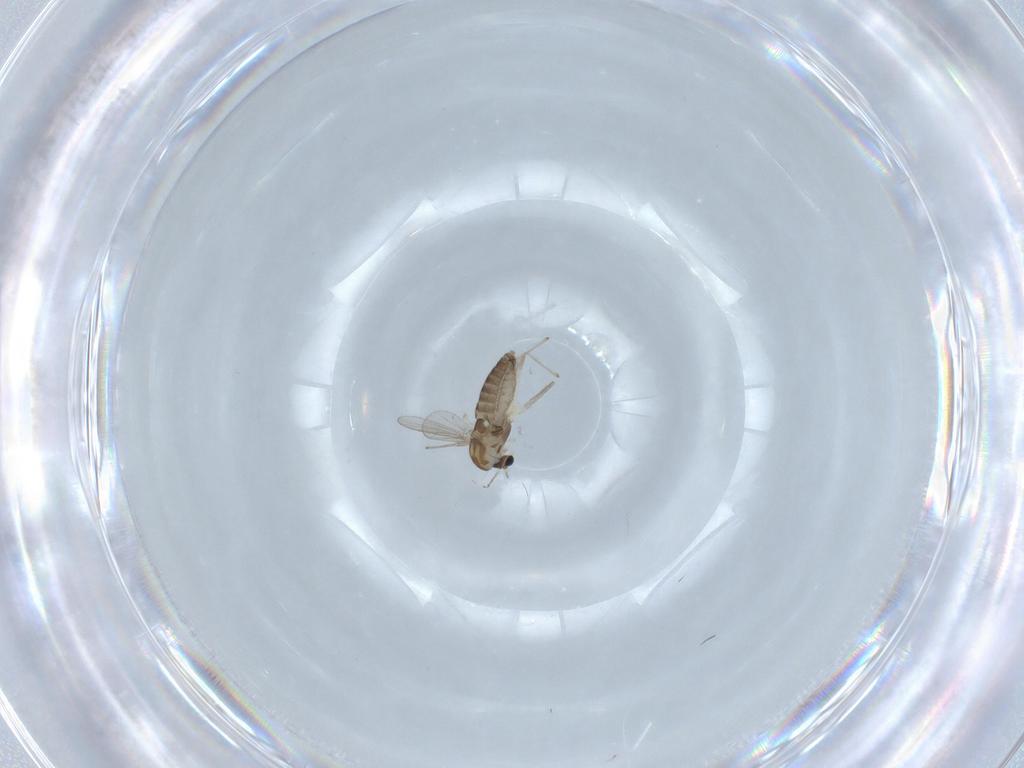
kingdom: Animalia
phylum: Arthropoda
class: Insecta
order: Diptera
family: Chironomidae
